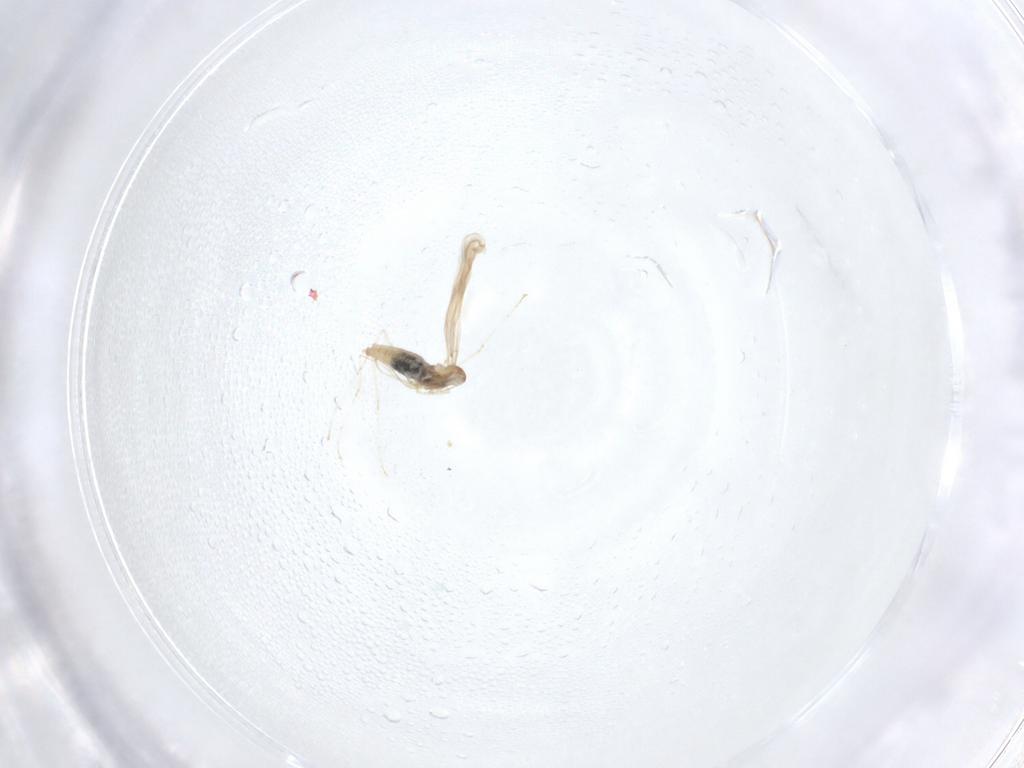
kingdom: Animalia
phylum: Arthropoda
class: Insecta
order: Diptera
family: Cecidomyiidae
